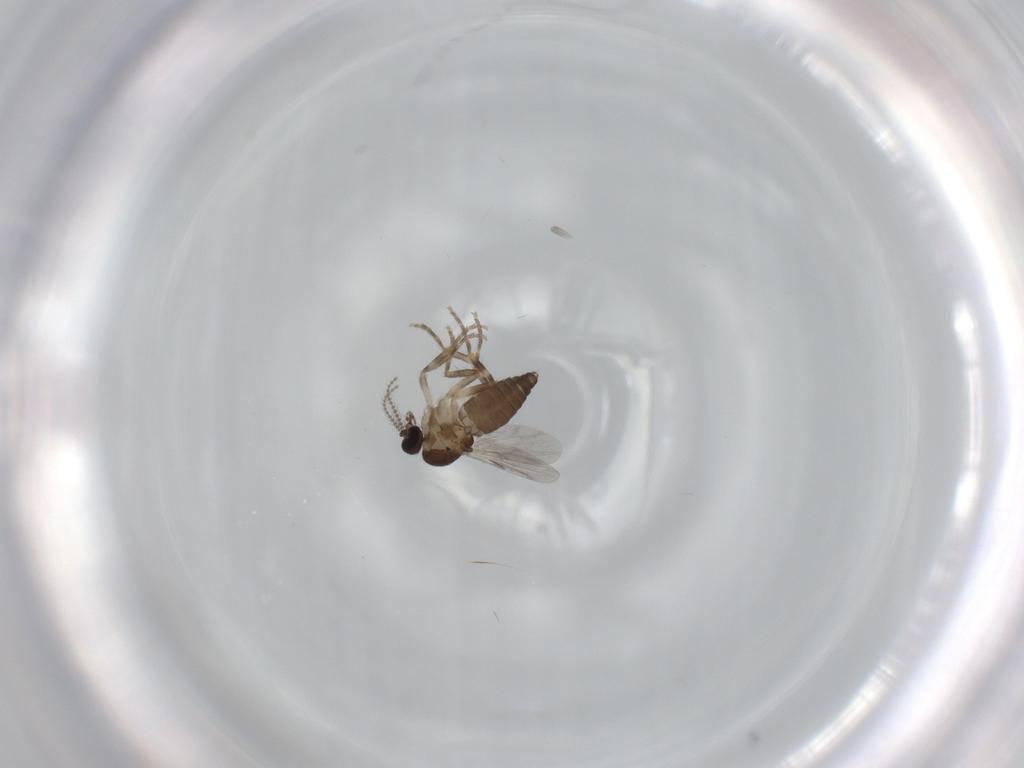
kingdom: Animalia
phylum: Arthropoda
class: Insecta
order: Diptera
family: Ceratopogonidae
